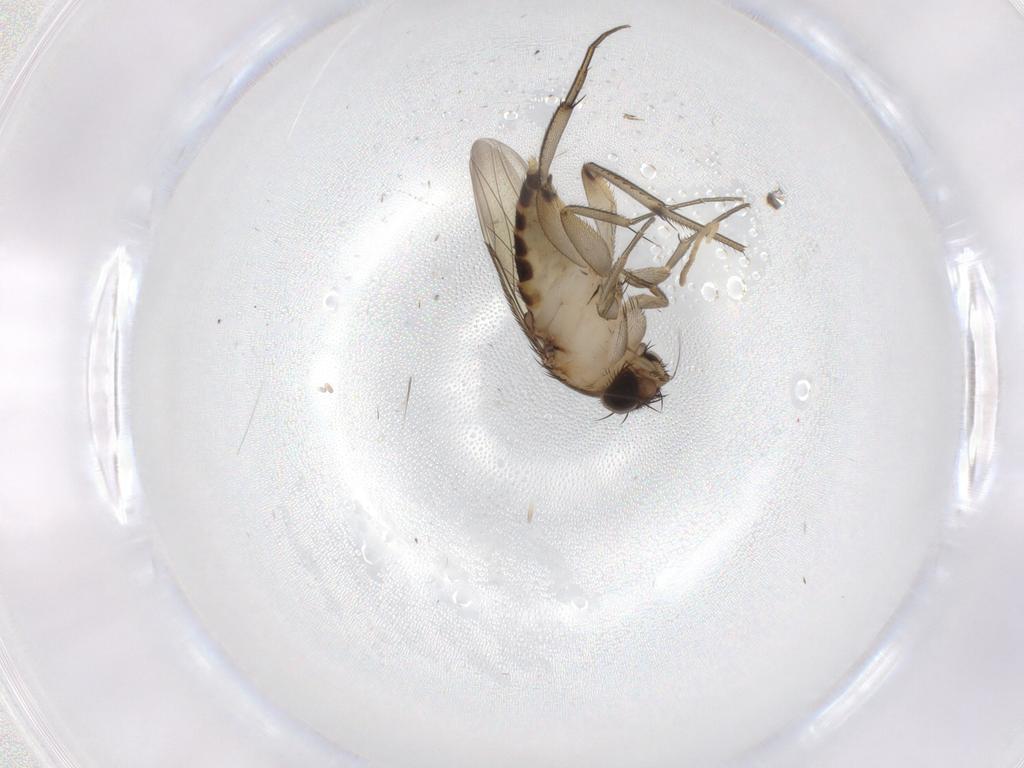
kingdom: Animalia
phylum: Arthropoda
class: Insecta
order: Diptera
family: Phoridae
